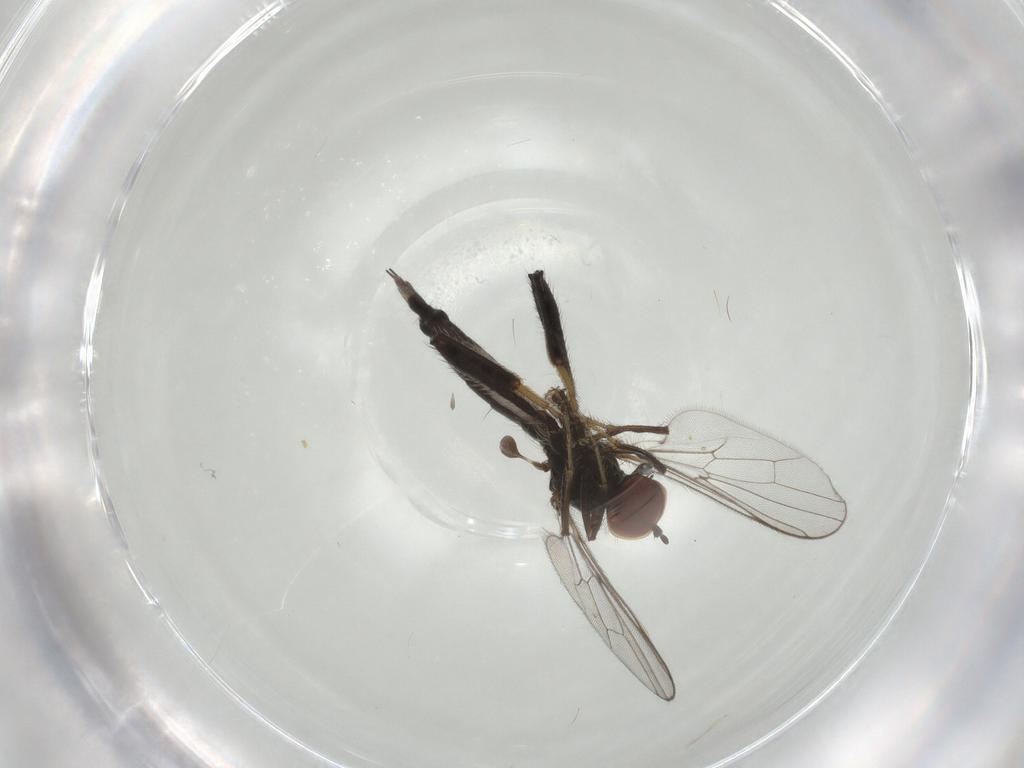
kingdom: Animalia
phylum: Arthropoda
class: Insecta
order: Diptera
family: Hybotidae
